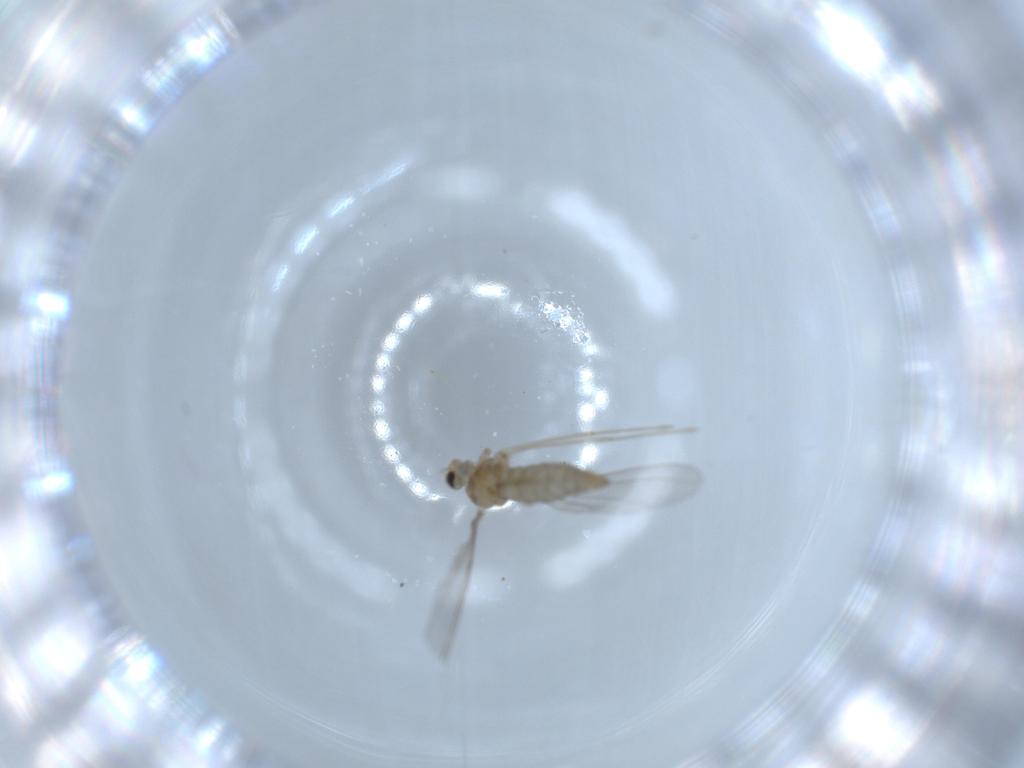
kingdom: Animalia
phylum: Arthropoda
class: Insecta
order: Diptera
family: Cecidomyiidae
